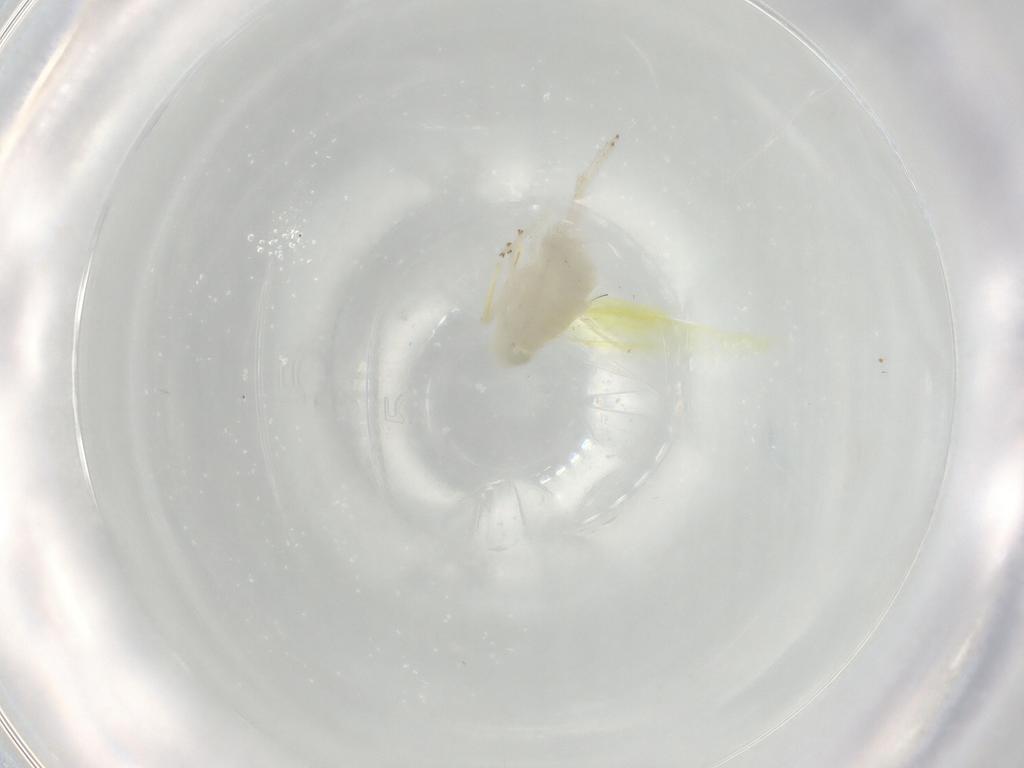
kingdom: Animalia
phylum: Arthropoda
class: Insecta
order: Hemiptera
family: Cicadellidae
